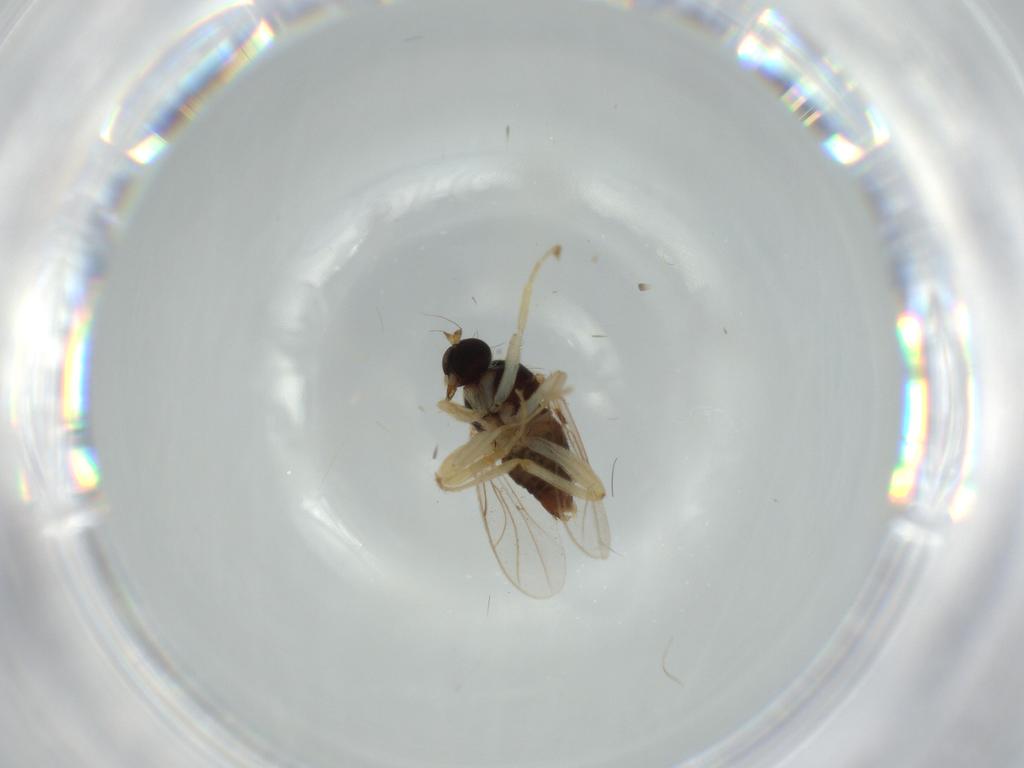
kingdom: Animalia
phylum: Arthropoda
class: Insecta
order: Diptera
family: Hybotidae
